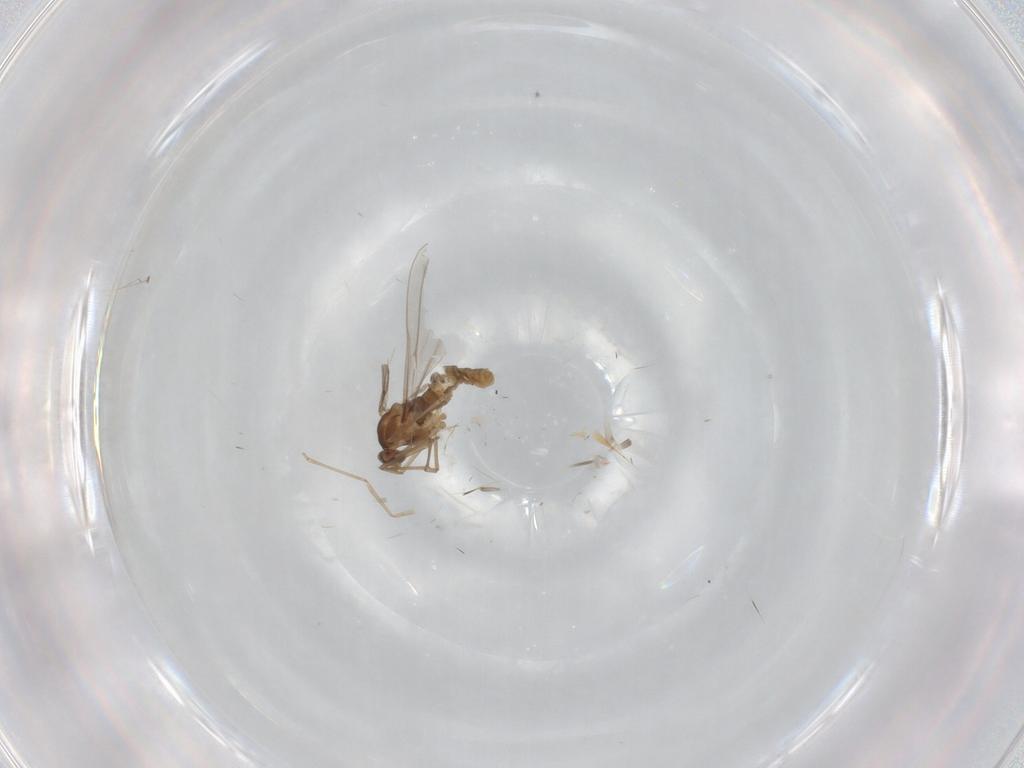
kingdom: Animalia
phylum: Arthropoda
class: Insecta
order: Diptera
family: Cecidomyiidae
